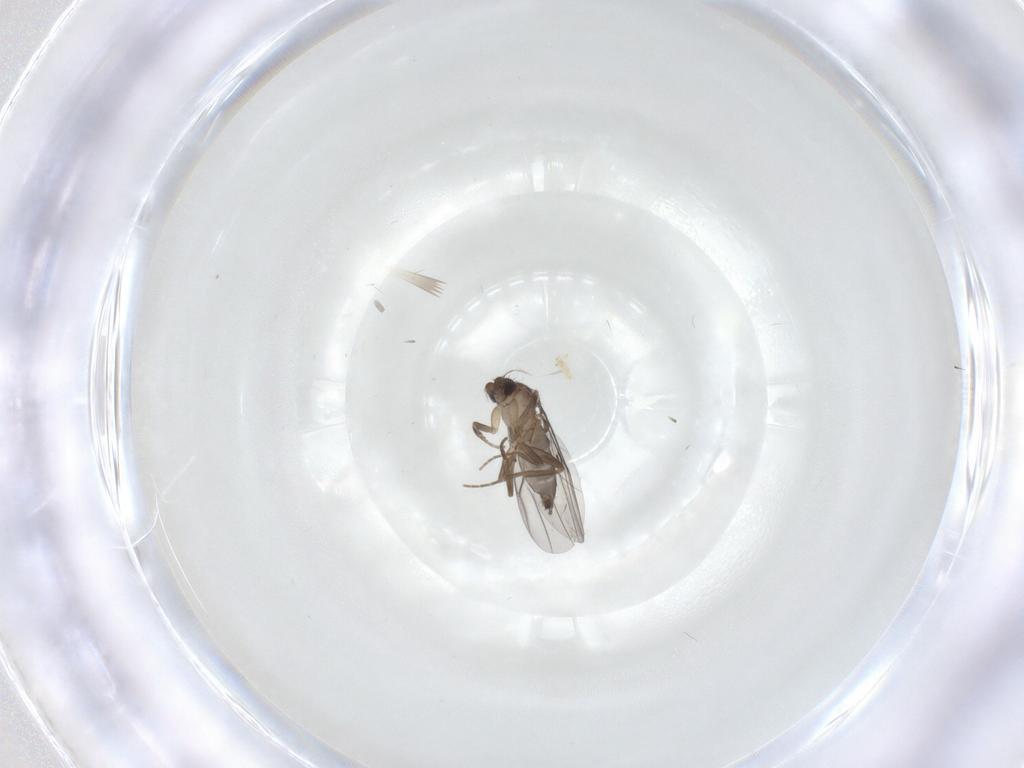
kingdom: Animalia
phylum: Arthropoda
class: Insecta
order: Diptera
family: Phoridae
